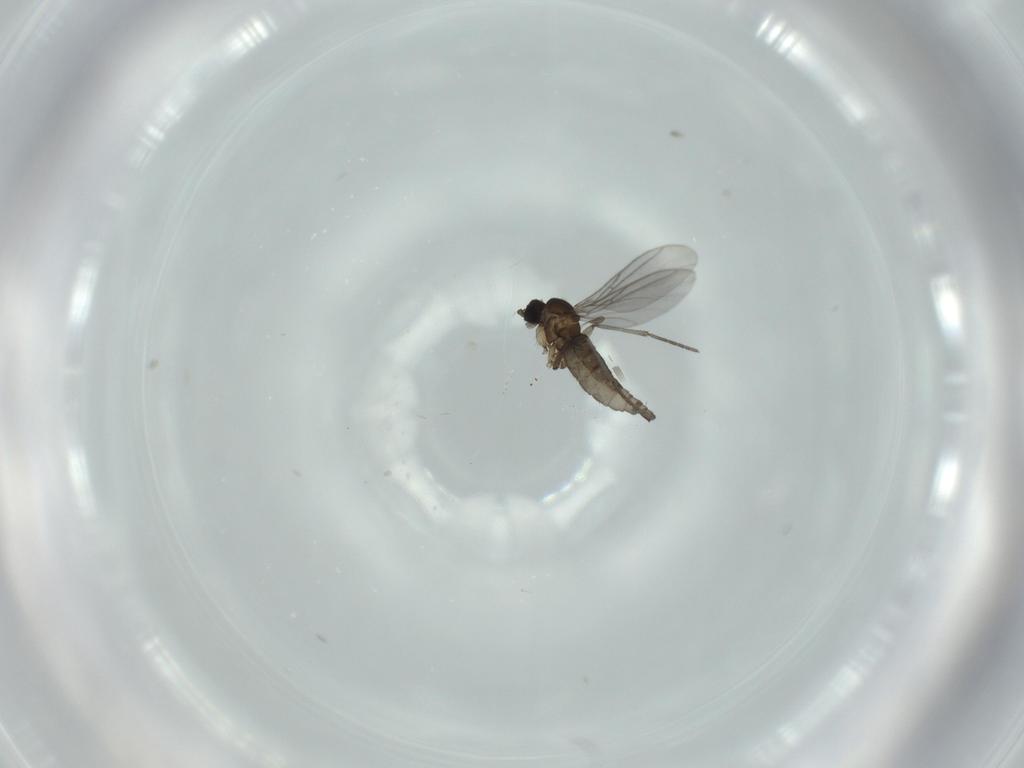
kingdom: Animalia
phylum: Arthropoda
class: Insecta
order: Diptera
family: Phoridae
